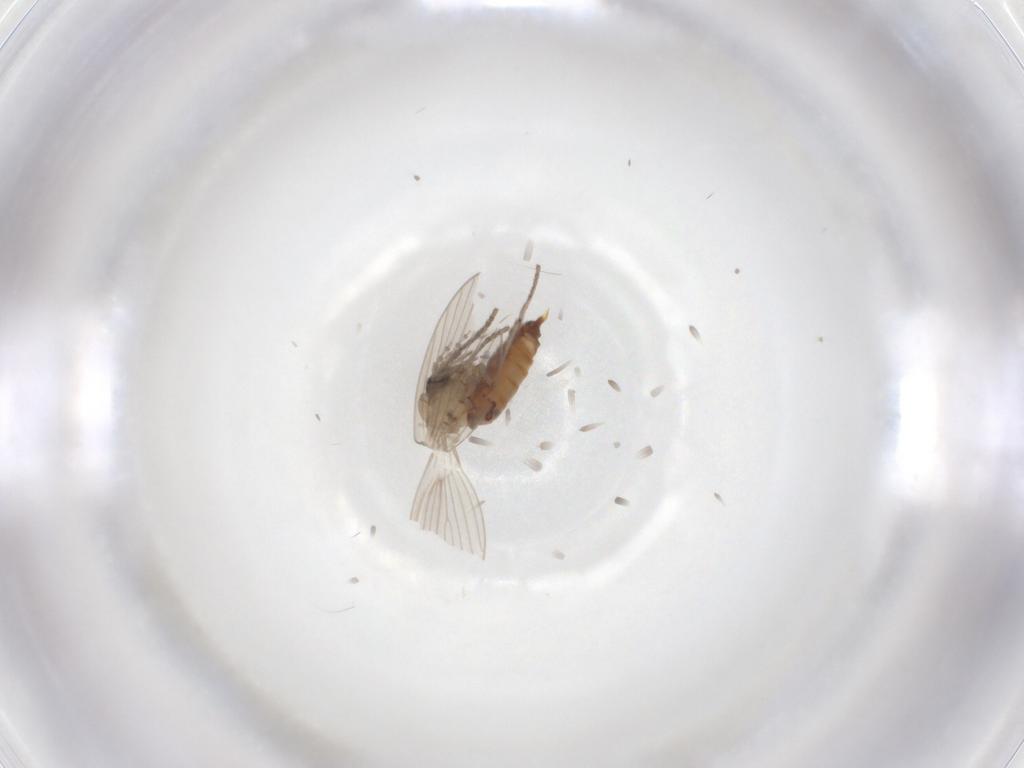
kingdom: Animalia
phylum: Arthropoda
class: Insecta
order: Diptera
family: Psychodidae
